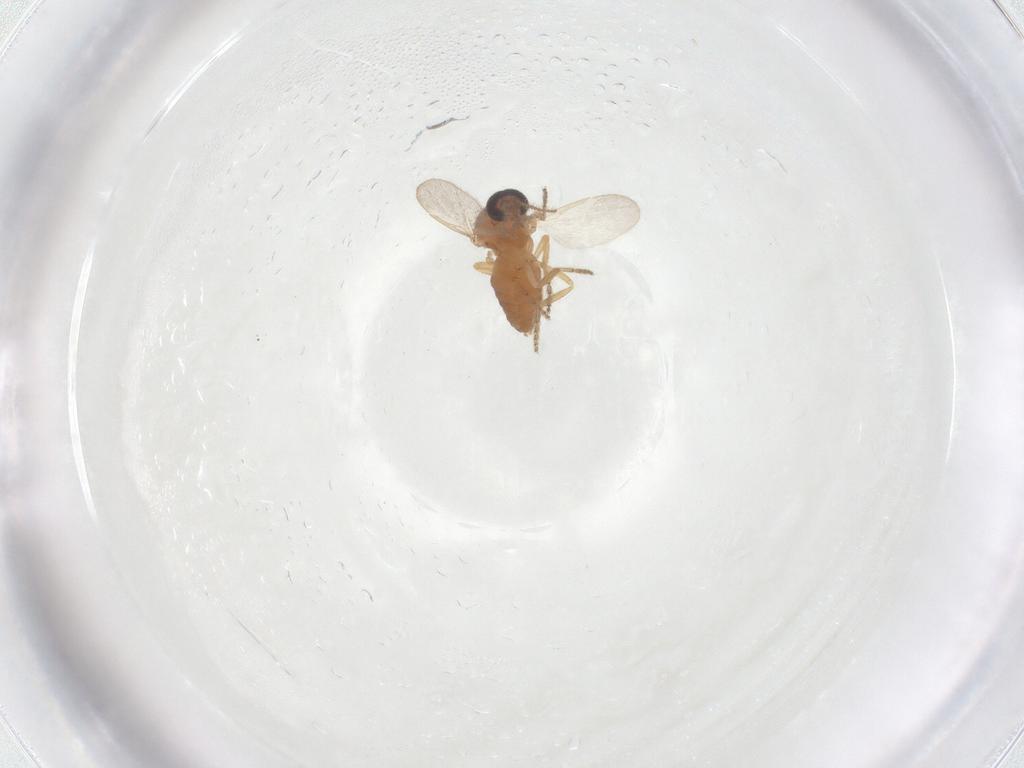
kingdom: Animalia
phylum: Arthropoda
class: Insecta
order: Diptera
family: Ceratopogonidae
